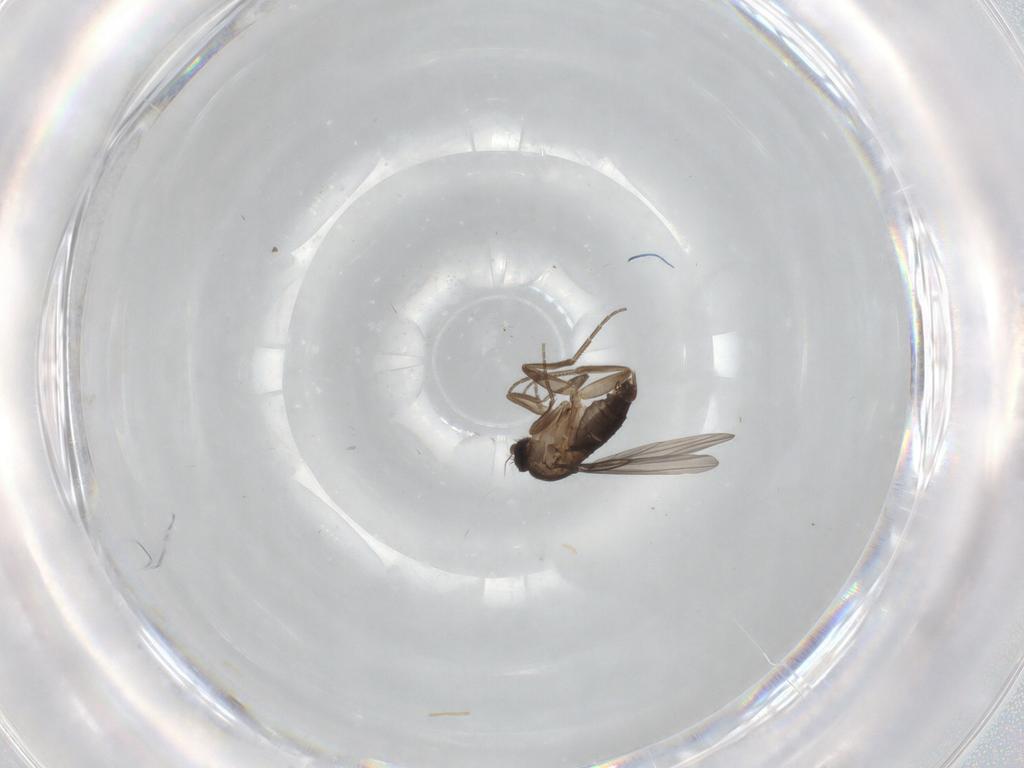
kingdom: Animalia
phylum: Arthropoda
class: Insecta
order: Diptera
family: Phoridae
